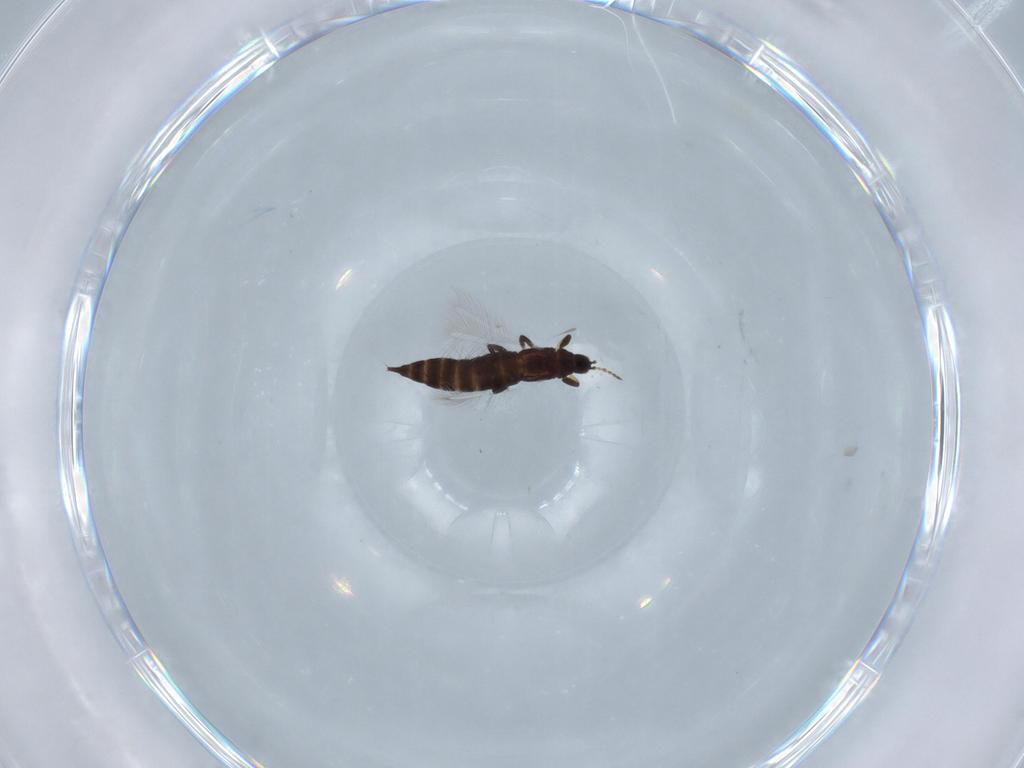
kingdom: Animalia
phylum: Arthropoda
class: Insecta
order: Thysanoptera
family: Phlaeothripidae
